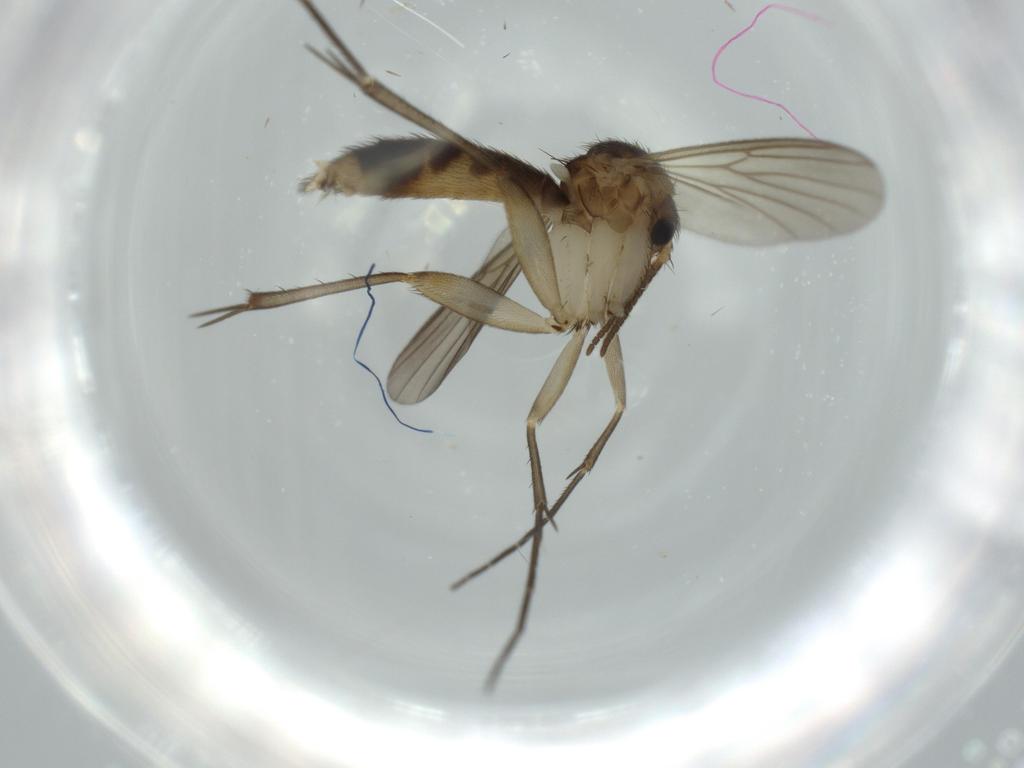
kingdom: Animalia
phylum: Arthropoda
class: Insecta
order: Diptera
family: Mycetophilidae
